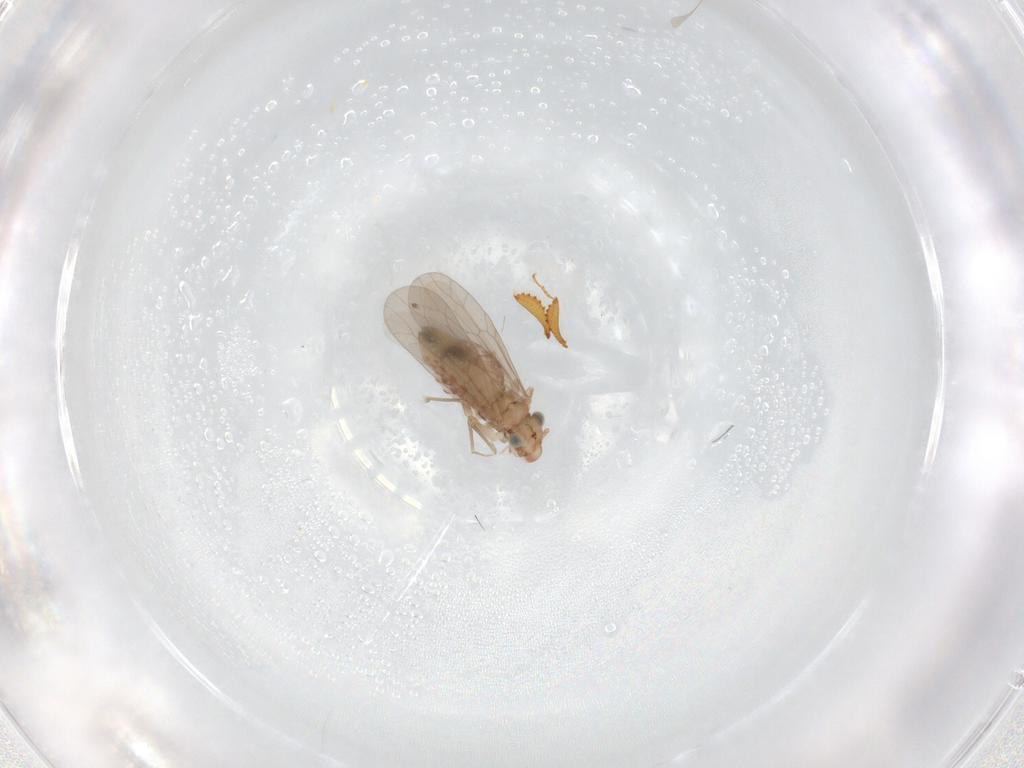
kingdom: Animalia
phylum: Arthropoda
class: Insecta
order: Psocodea
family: Lepidopsocidae
